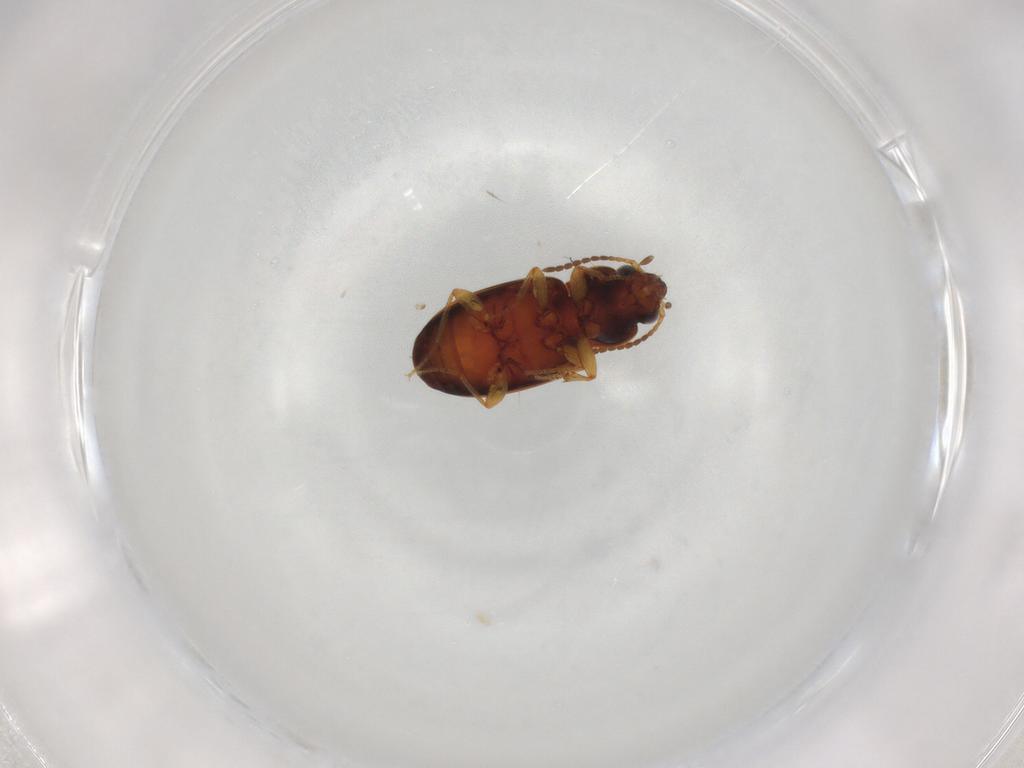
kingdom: Animalia
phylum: Arthropoda
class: Insecta
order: Coleoptera
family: Carabidae
